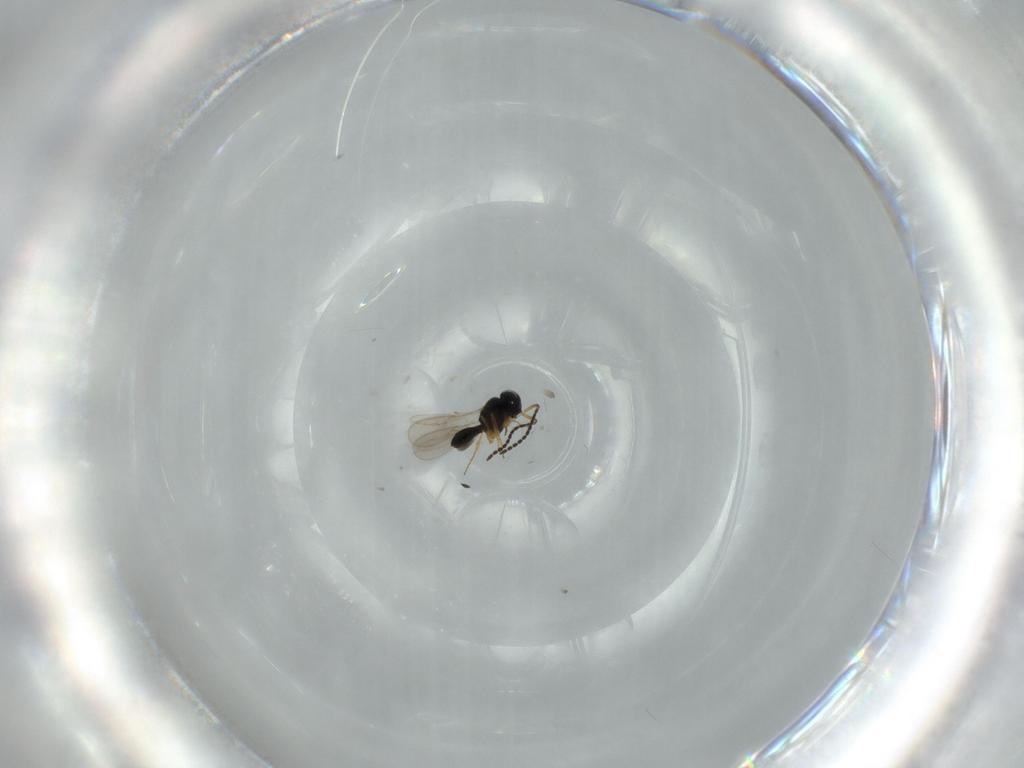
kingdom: Animalia
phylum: Arthropoda
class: Insecta
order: Hymenoptera
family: Scelionidae
